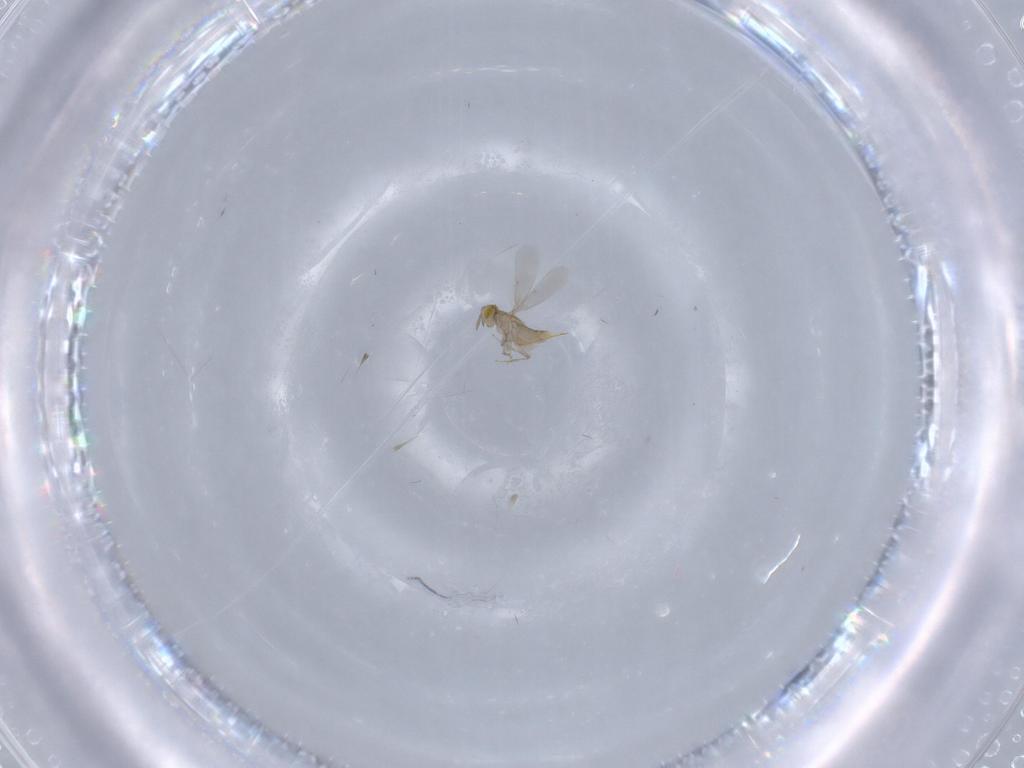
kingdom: Animalia
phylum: Arthropoda
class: Insecta
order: Hymenoptera
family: Aphelinidae
